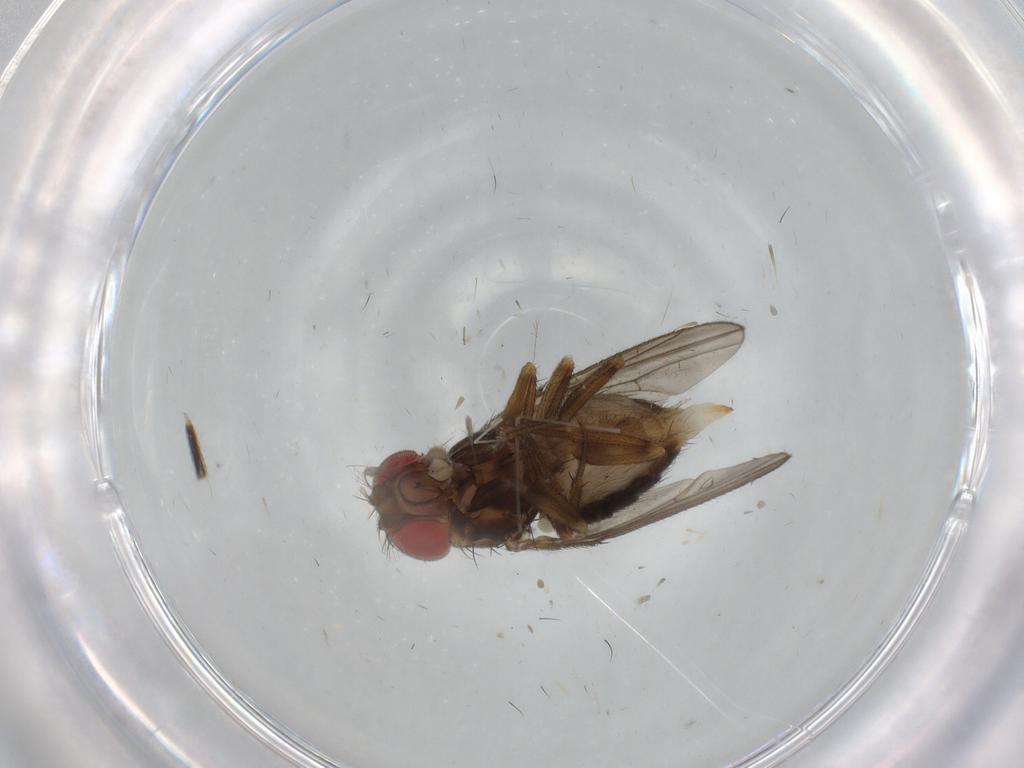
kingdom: Animalia
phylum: Arthropoda
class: Insecta
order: Diptera
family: Drosophilidae
